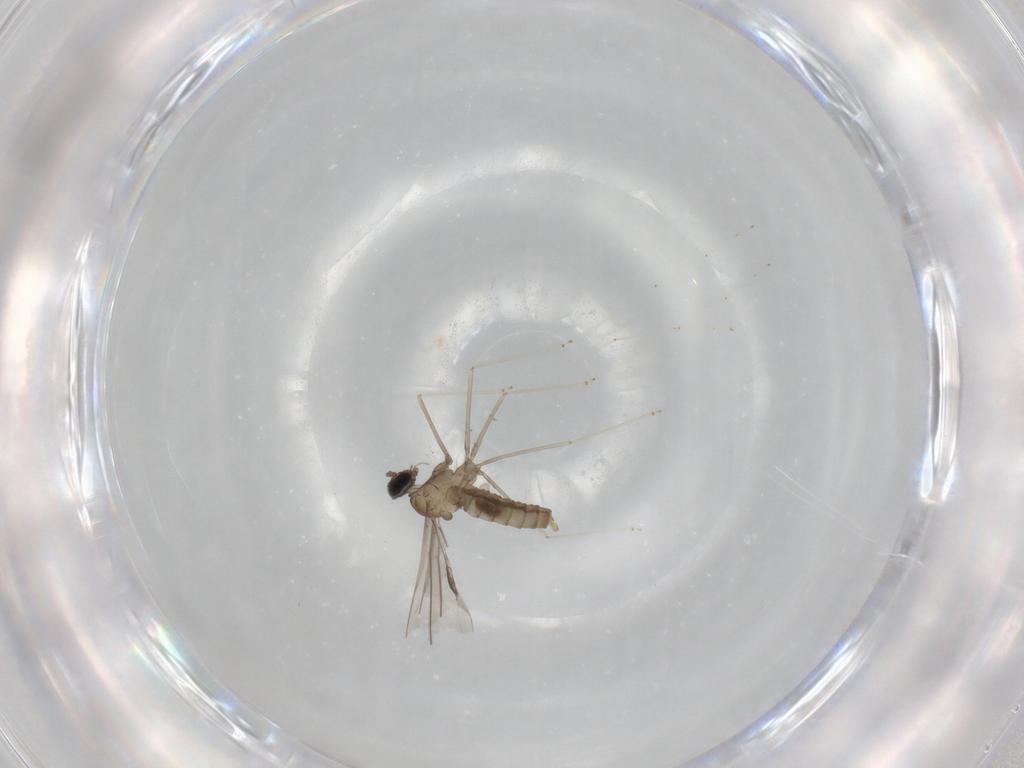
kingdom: Animalia
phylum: Arthropoda
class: Insecta
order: Diptera
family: Cecidomyiidae
